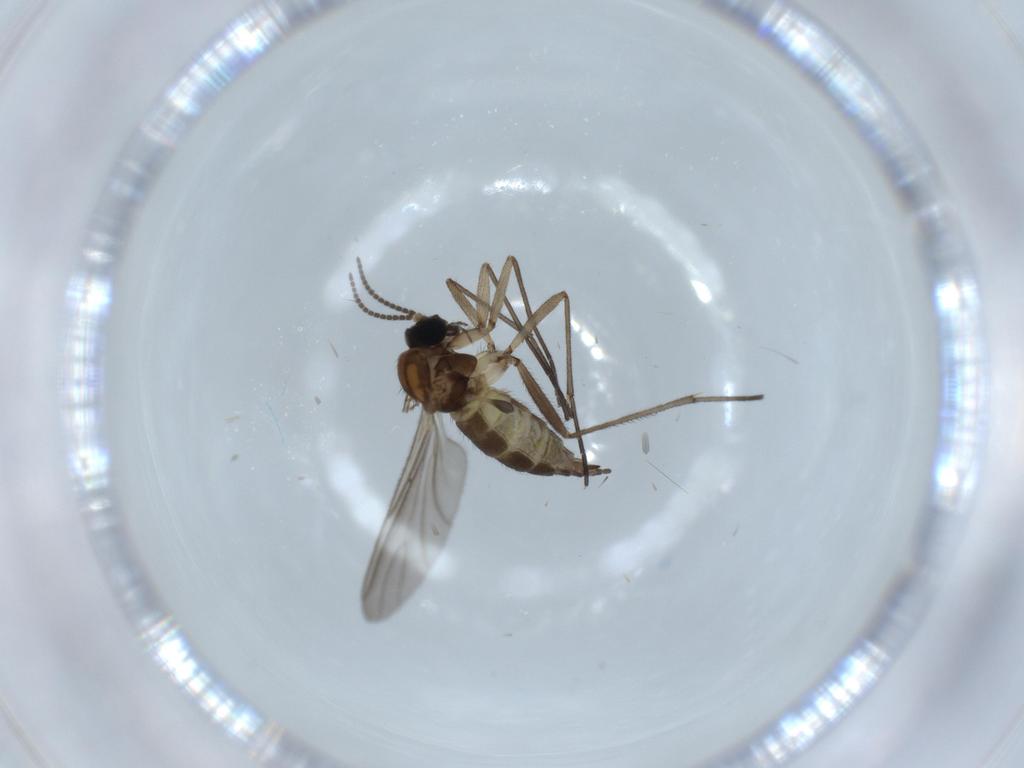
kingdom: Animalia
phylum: Arthropoda
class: Insecta
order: Diptera
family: Sciaridae
